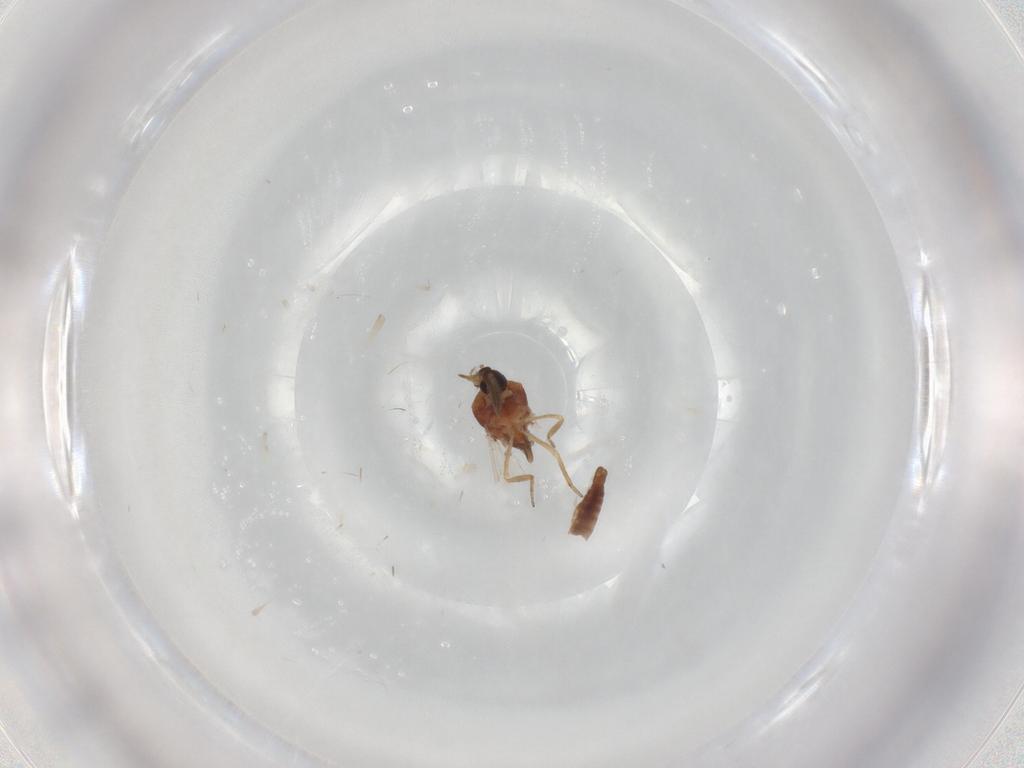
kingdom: Animalia
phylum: Arthropoda
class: Insecta
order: Diptera
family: Ceratopogonidae
